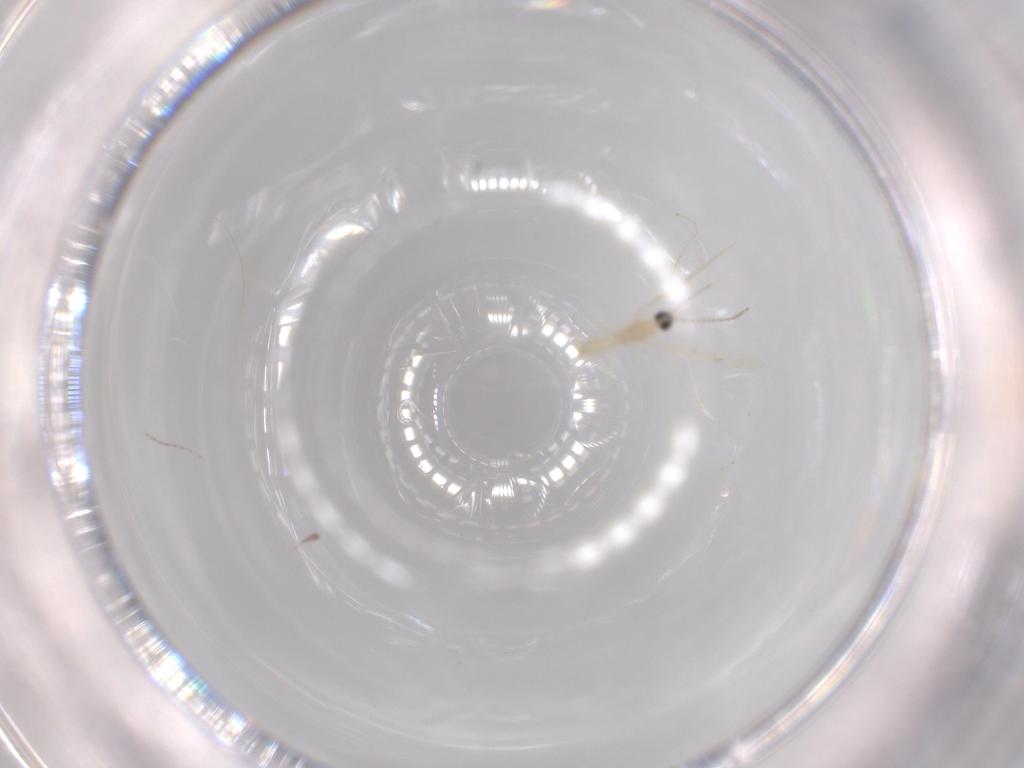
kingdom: Animalia
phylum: Arthropoda
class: Insecta
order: Diptera
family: Cecidomyiidae
